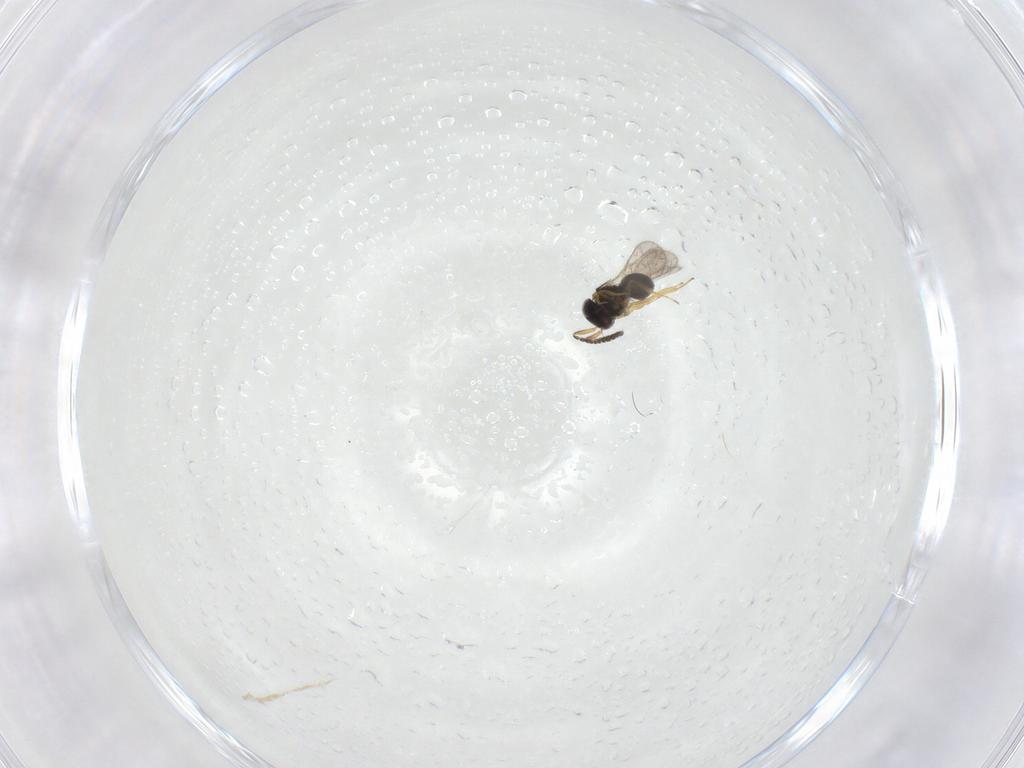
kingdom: Animalia
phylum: Arthropoda
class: Insecta
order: Hymenoptera
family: Scelionidae
